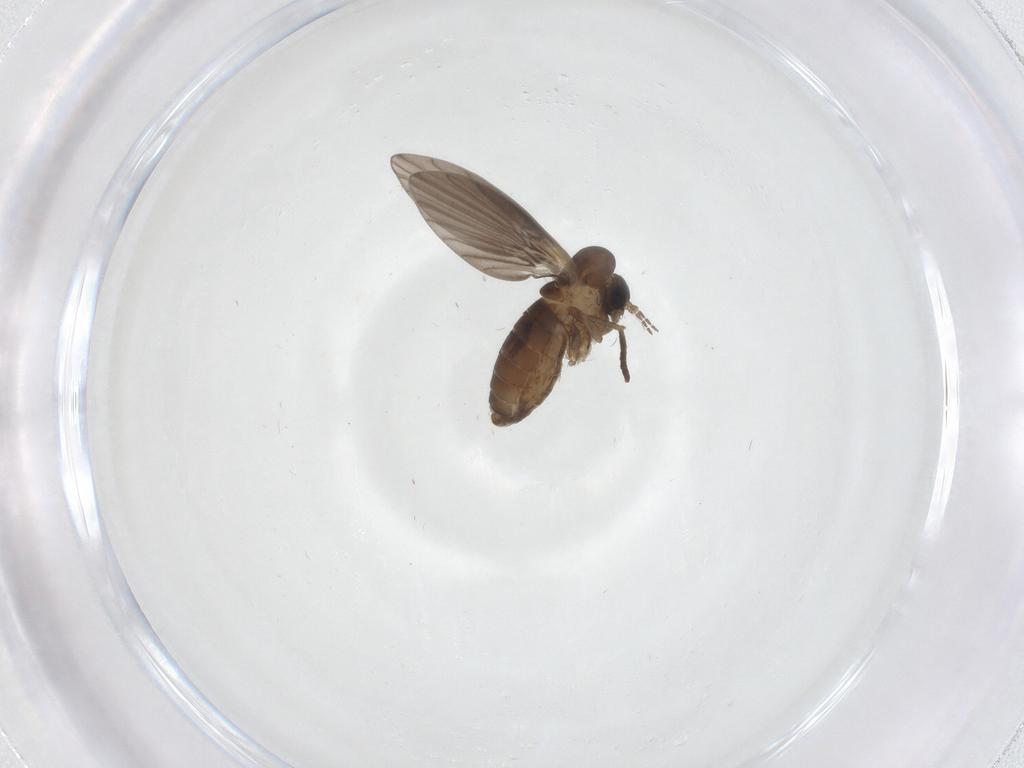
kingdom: Animalia
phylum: Arthropoda
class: Insecta
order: Diptera
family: Psychodidae
